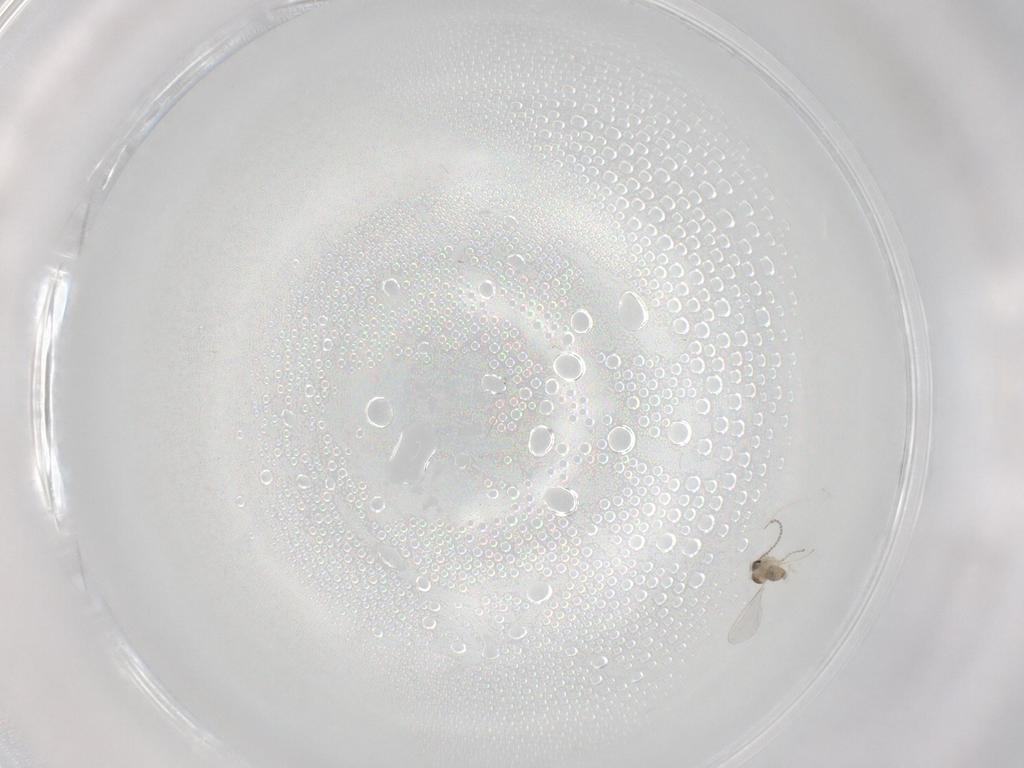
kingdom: Animalia
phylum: Arthropoda
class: Insecta
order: Diptera
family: Cecidomyiidae
